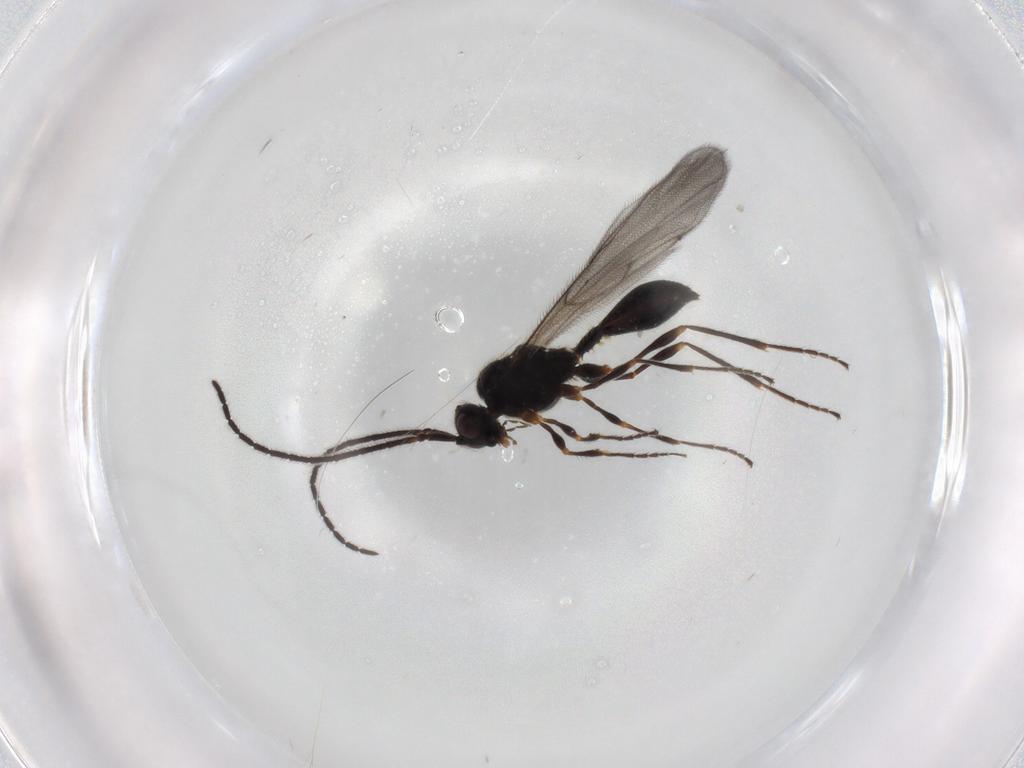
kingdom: Animalia
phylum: Arthropoda
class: Insecta
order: Hymenoptera
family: Diapriidae
